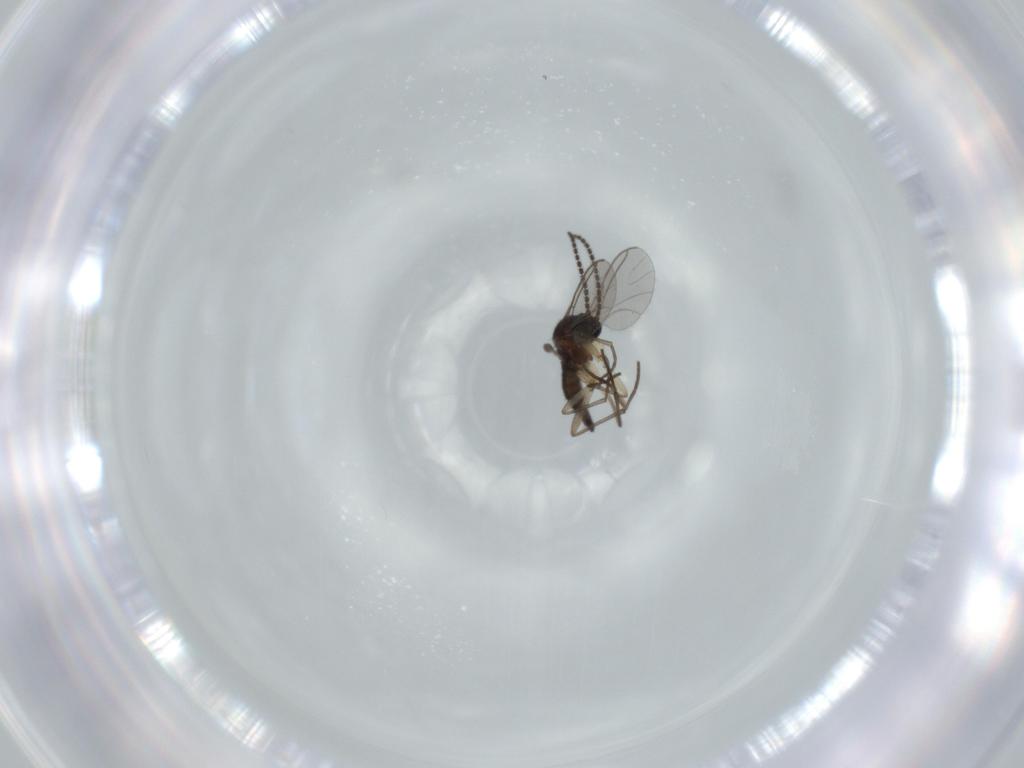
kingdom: Animalia
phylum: Arthropoda
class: Insecta
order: Diptera
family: Sciaridae
